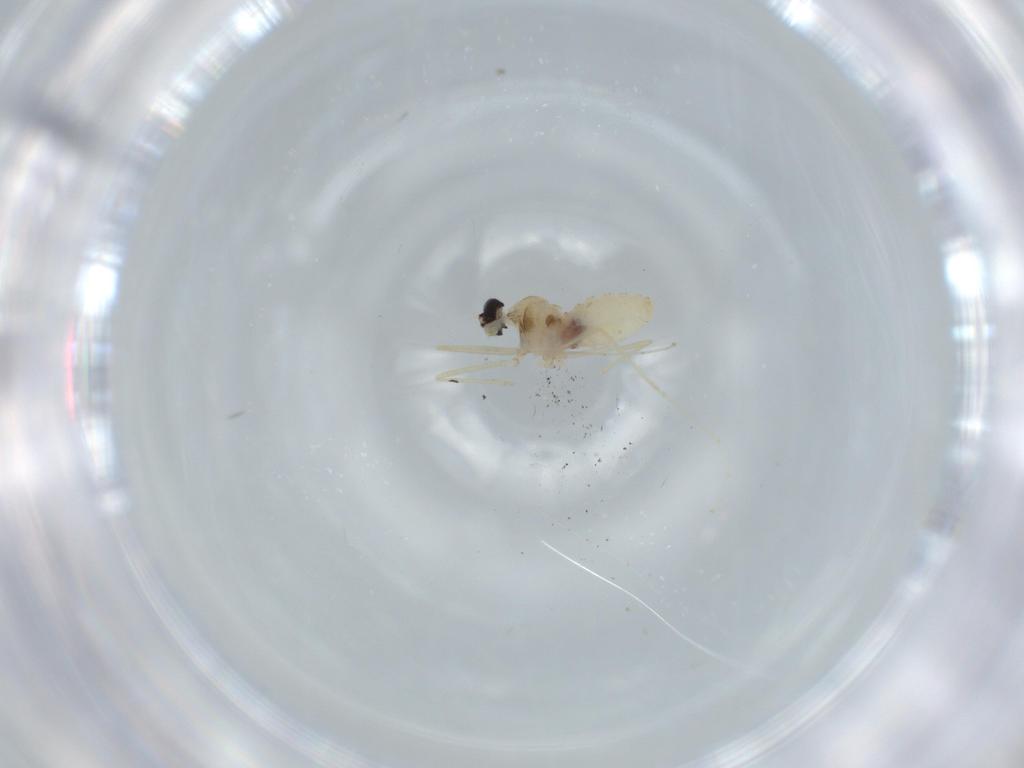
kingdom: Animalia
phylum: Arthropoda
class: Insecta
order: Diptera
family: Cecidomyiidae
